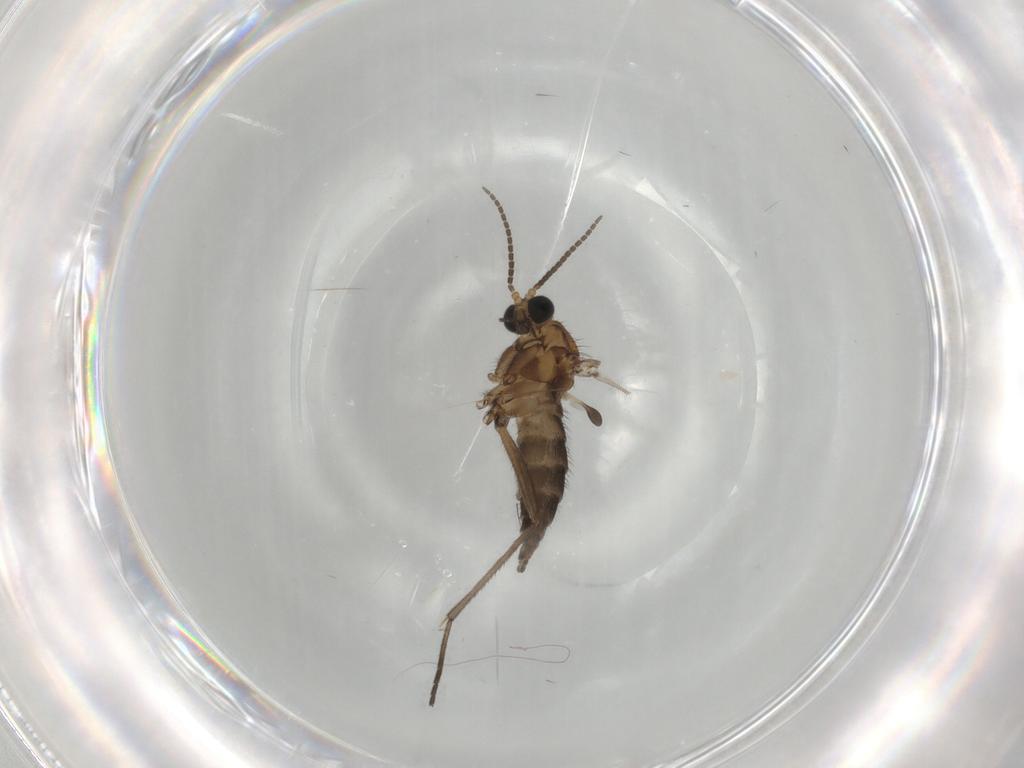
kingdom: Animalia
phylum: Arthropoda
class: Insecta
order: Diptera
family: Sciaridae
